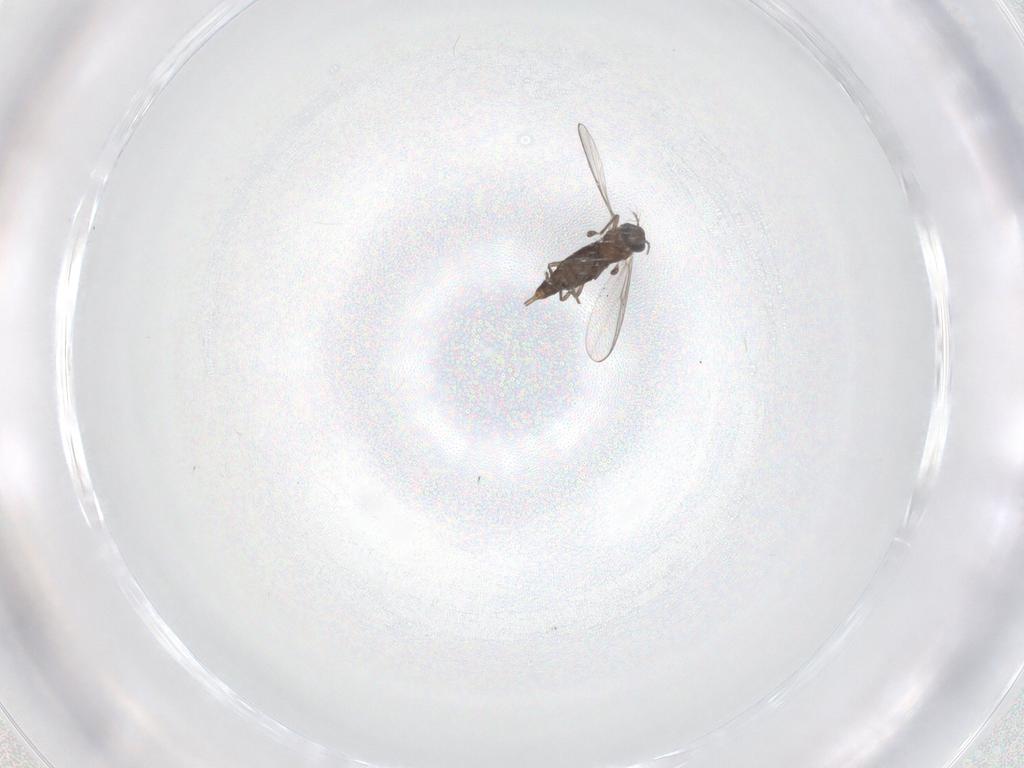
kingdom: Animalia
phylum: Arthropoda
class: Insecta
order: Diptera
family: Chironomidae
